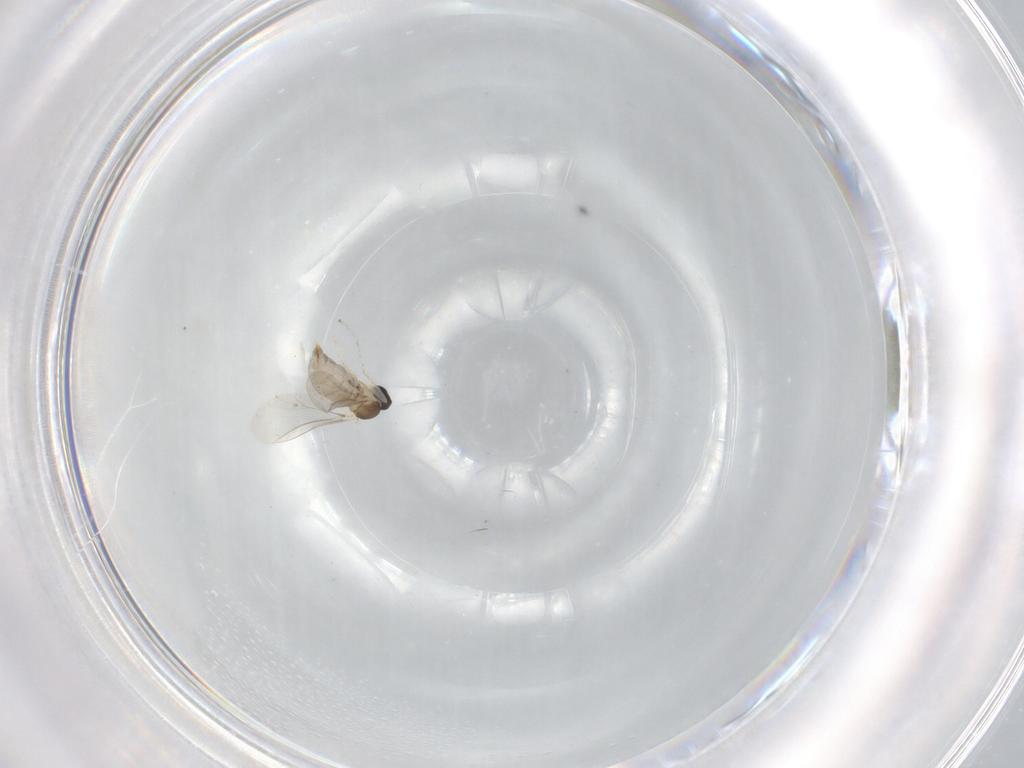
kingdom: Animalia
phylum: Arthropoda
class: Insecta
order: Diptera
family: Cecidomyiidae
